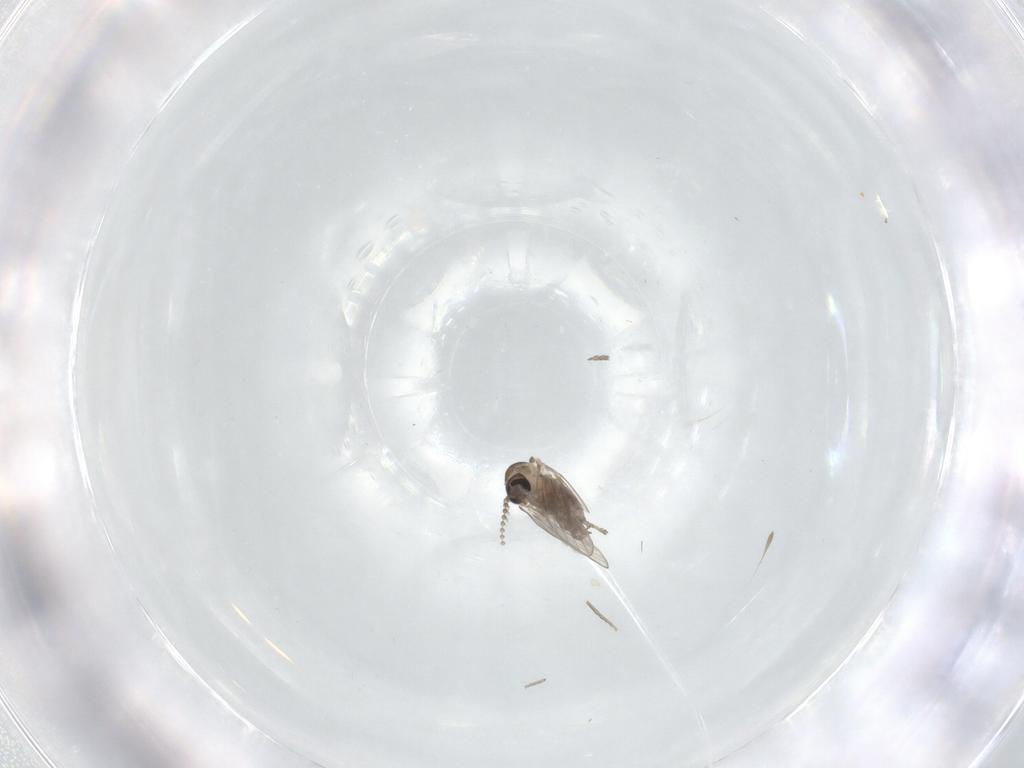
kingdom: Animalia
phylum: Arthropoda
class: Insecta
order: Diptera
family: Psychodidae
